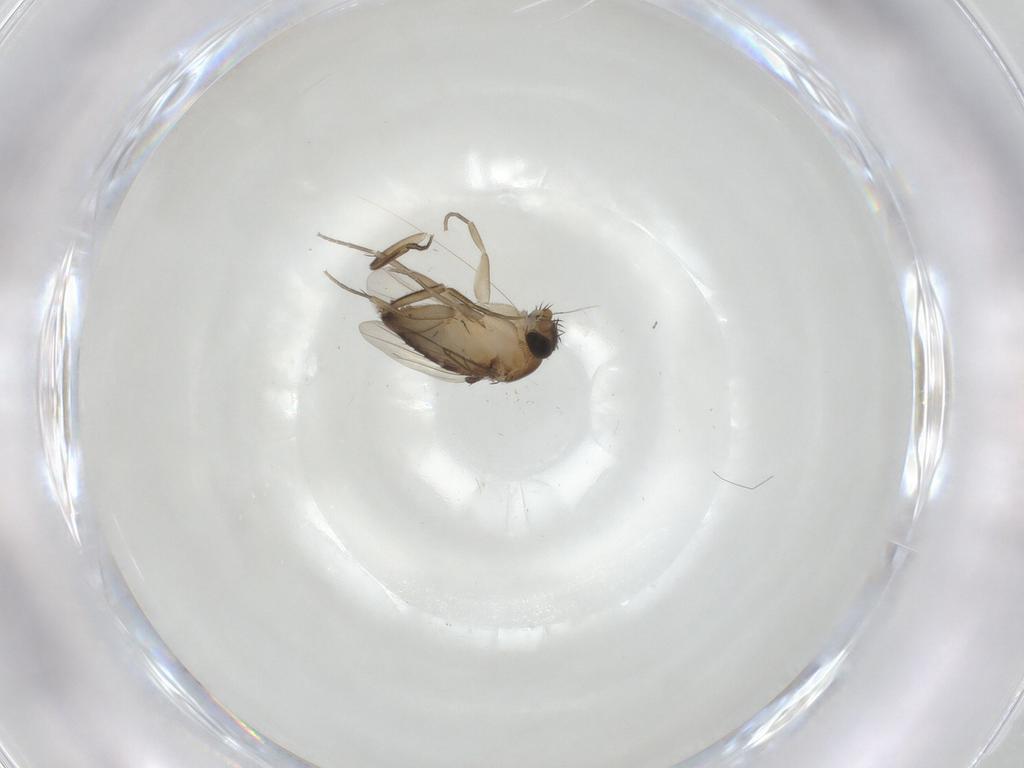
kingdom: Animalia
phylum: Arthropoda
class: Insecta
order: Diptera
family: Phoridae
